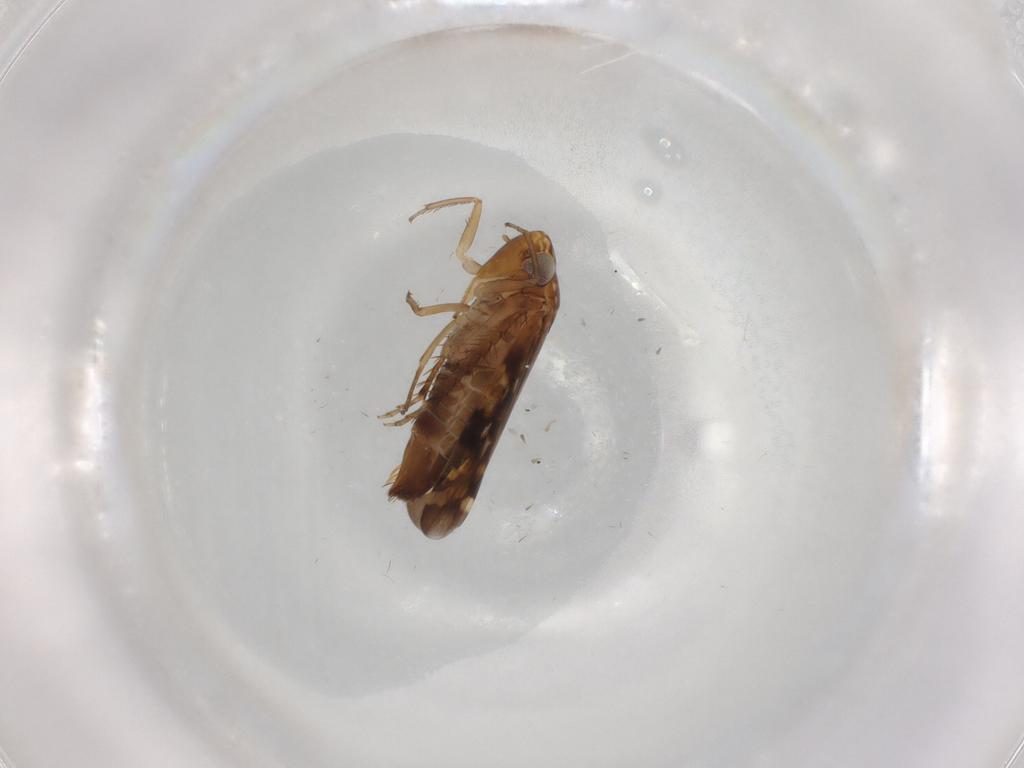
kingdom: Animalia
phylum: Arthropoda
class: Insecta
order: Hemiptera
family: Cicadellidae
